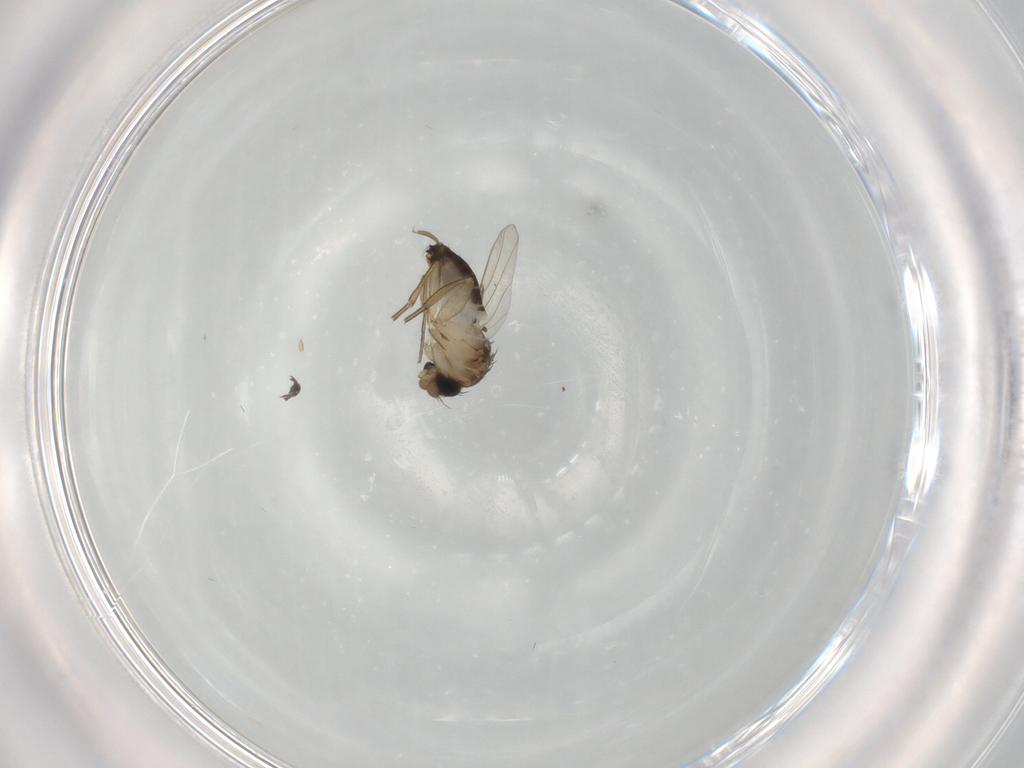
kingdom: Animalia
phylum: Arthropoda
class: Insecta
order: Diptera
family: Phoridae
